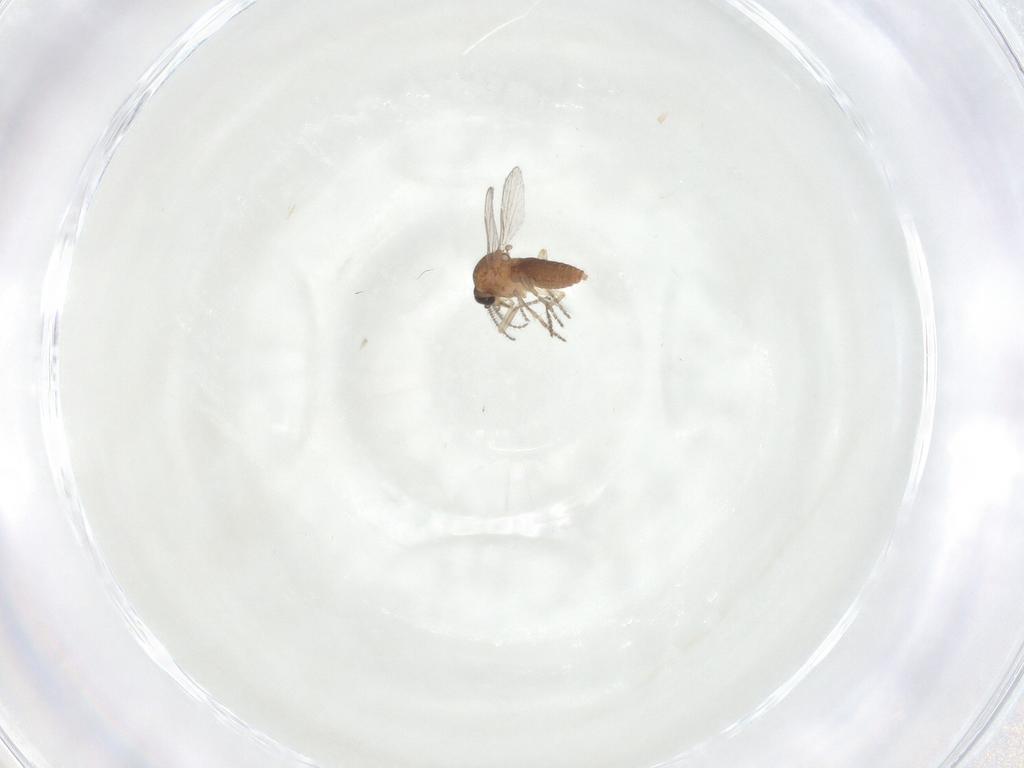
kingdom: Animalia
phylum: Arthropoda
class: Insecta
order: Diptera
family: Ceratopogonidae
